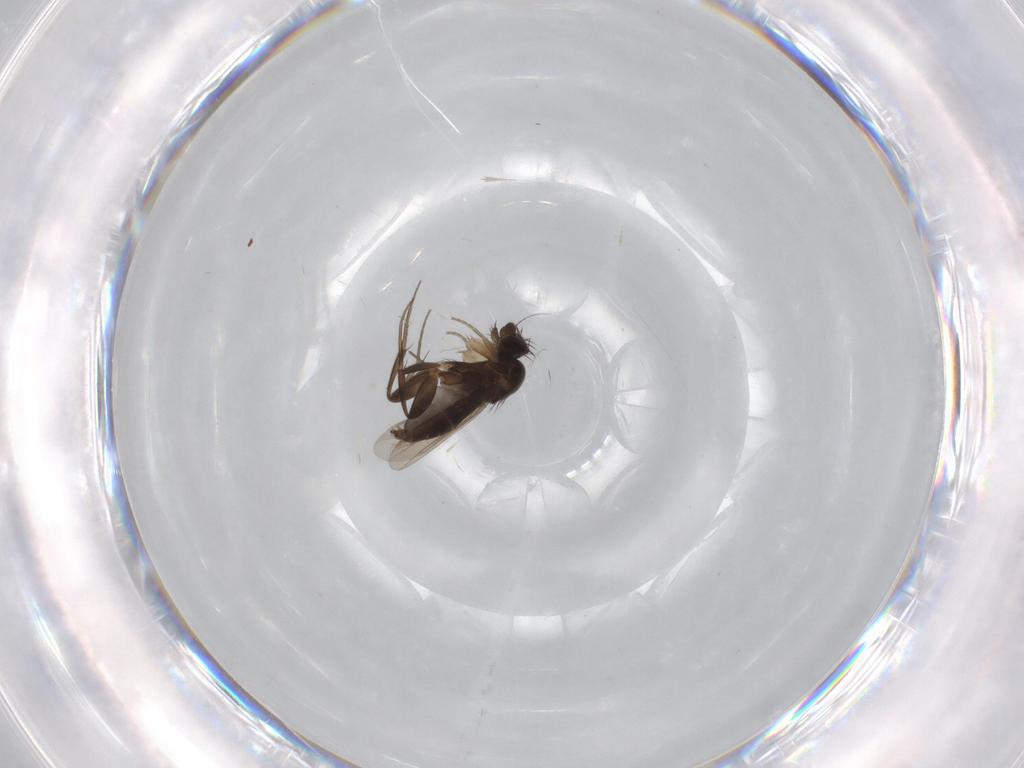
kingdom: Animalia
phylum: Arthropoda
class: Insecta
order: Diptera
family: Phoridae
